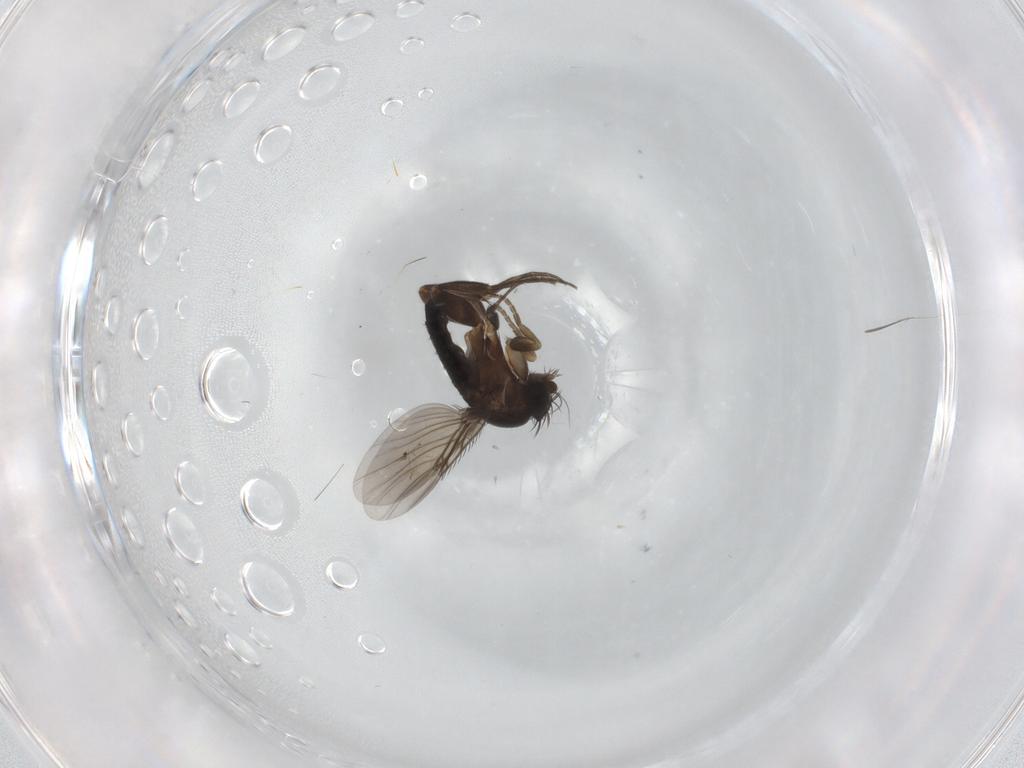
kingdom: Animalia
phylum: Arthropoda
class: Insecta
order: Diptera
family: Phoridae
